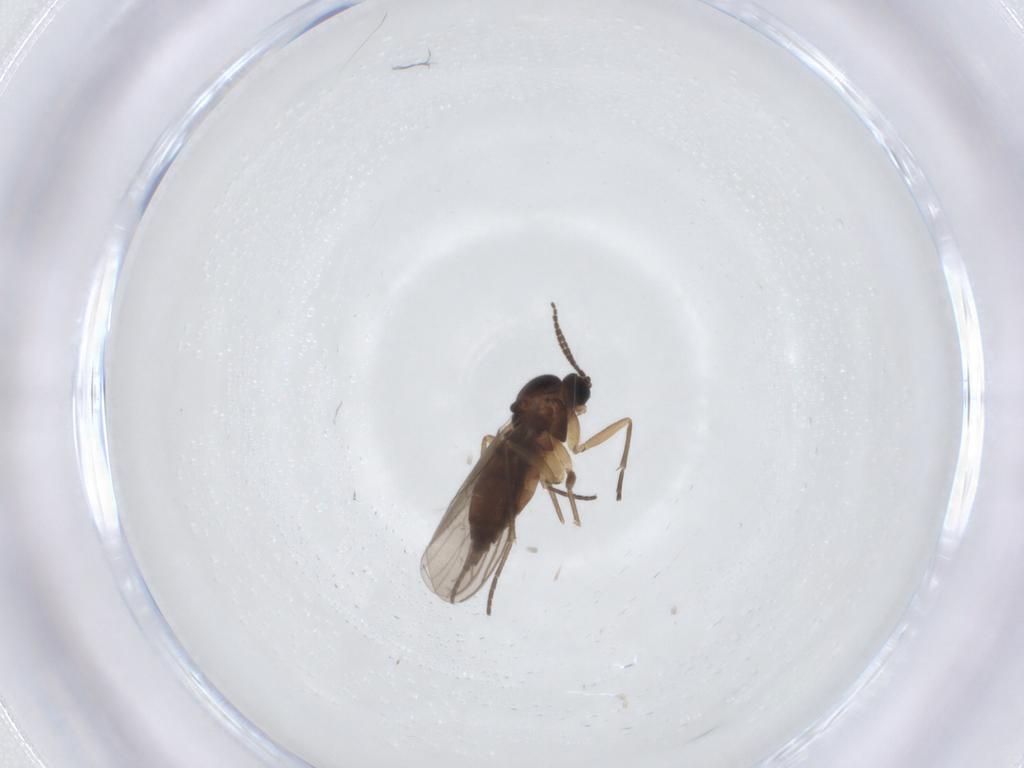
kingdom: Animalia
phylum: Arthropoda
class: Insecta
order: Diptera
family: Sciaridae
